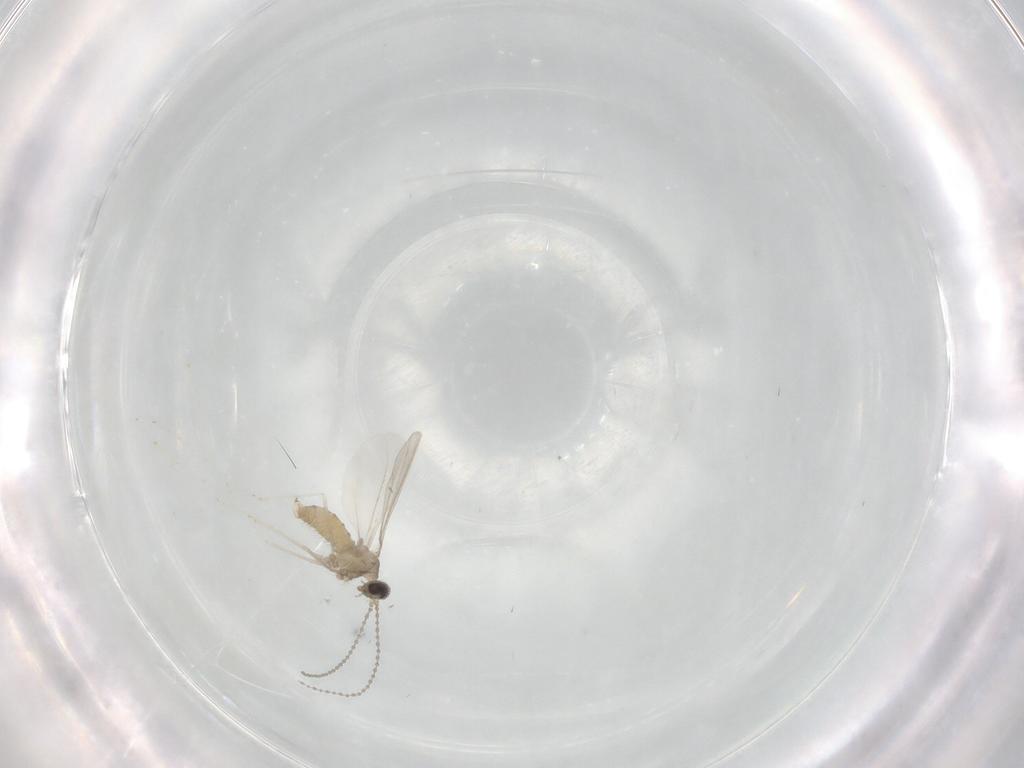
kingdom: Animalia
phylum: Arthropoda
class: Insecta
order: Diptera
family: Cecidomyiidae
